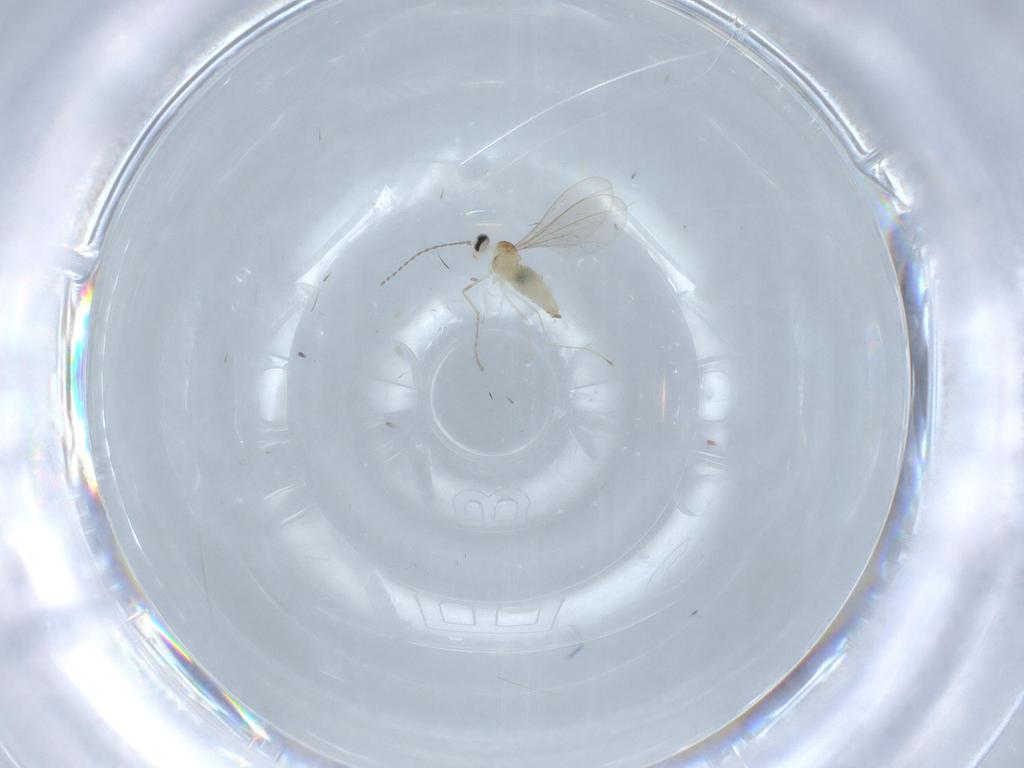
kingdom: Animalia
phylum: Arthropoda
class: Insecta
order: Diptera
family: Cecidomyiidae
